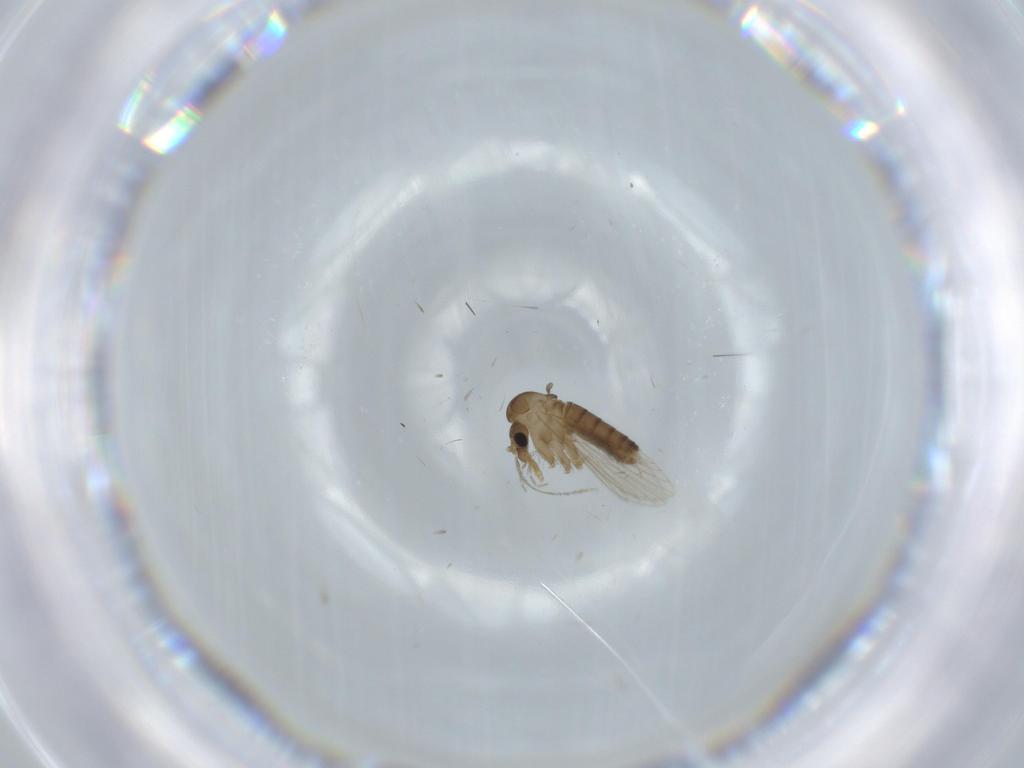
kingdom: Animalia
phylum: Arthropoda
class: Insecta
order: Diptera
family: Psychodidae
